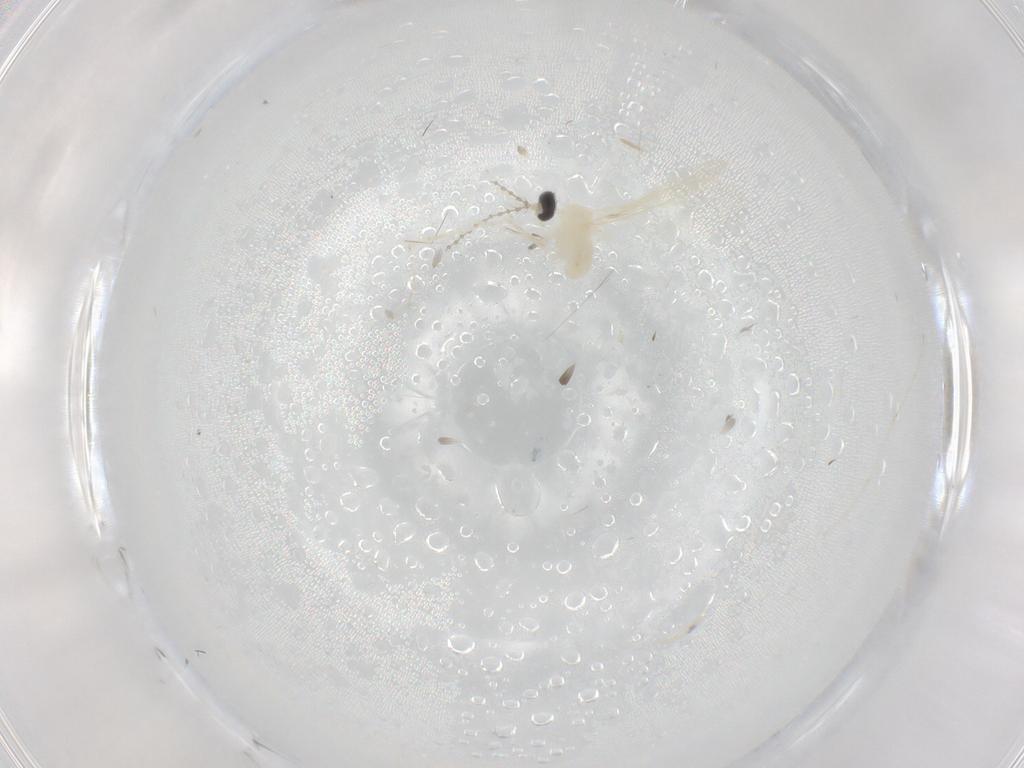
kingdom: Animalia
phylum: Arthropoda
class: Insecta
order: Diptera
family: Cecidomyiidae
